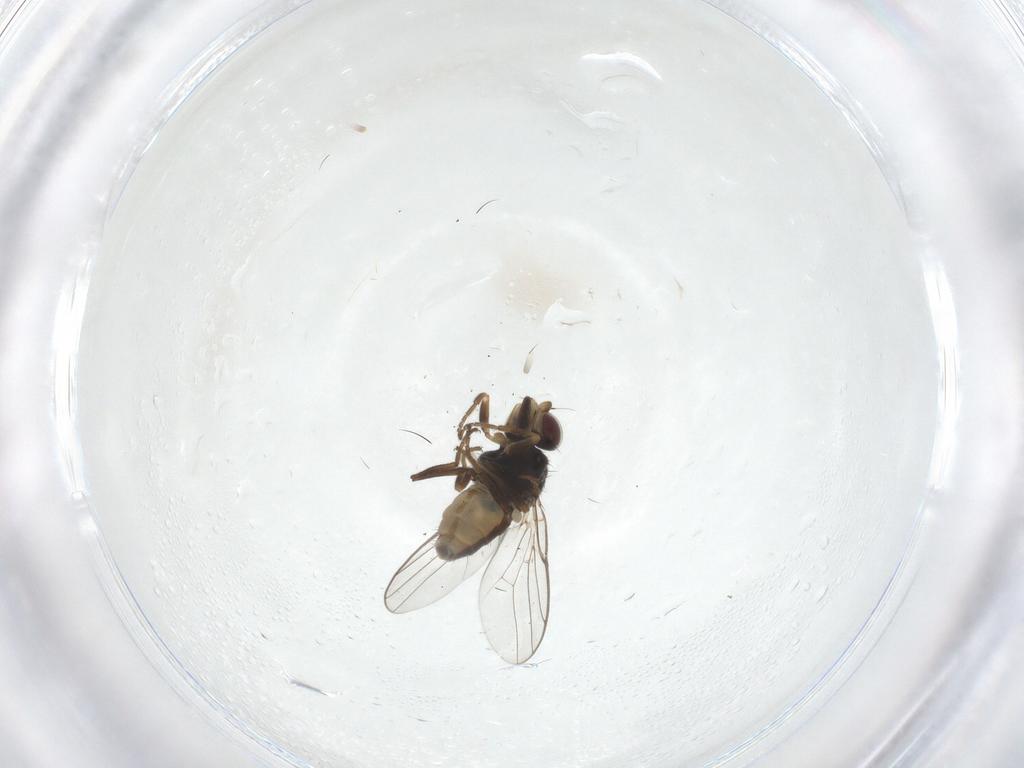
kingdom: Animalia
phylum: Arthropoda
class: Insecta
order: Diptera
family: Chloropidae
